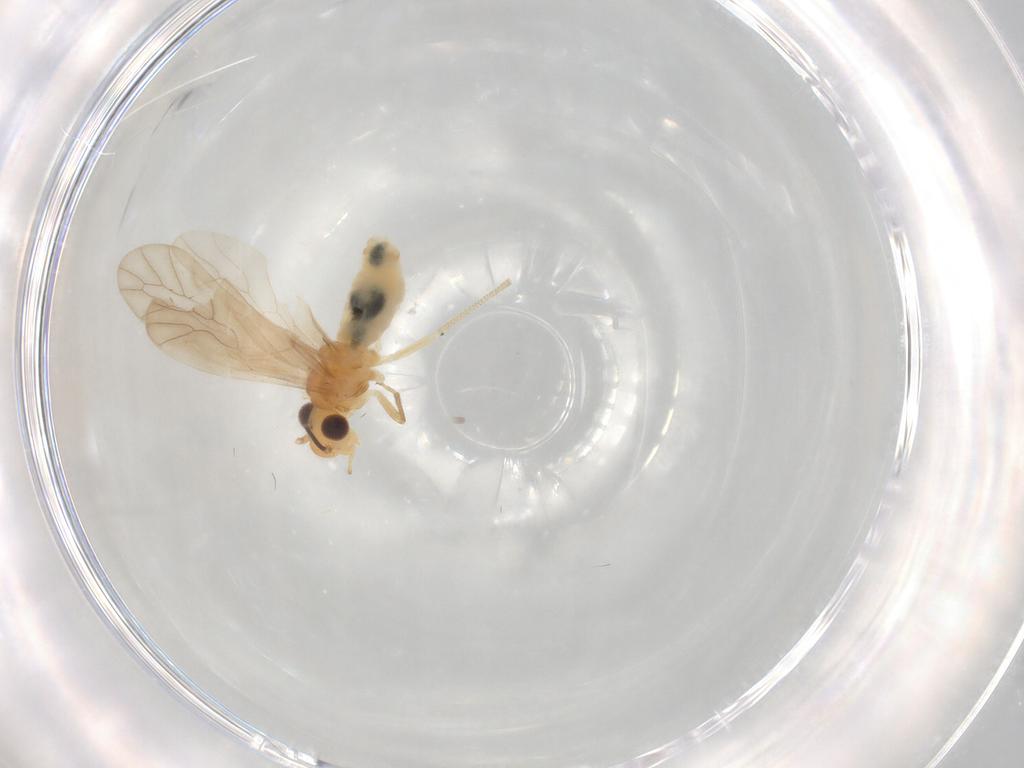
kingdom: Animalia
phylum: Arthropoda
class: Insecta
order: Psocodea
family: Caeciliusidae
